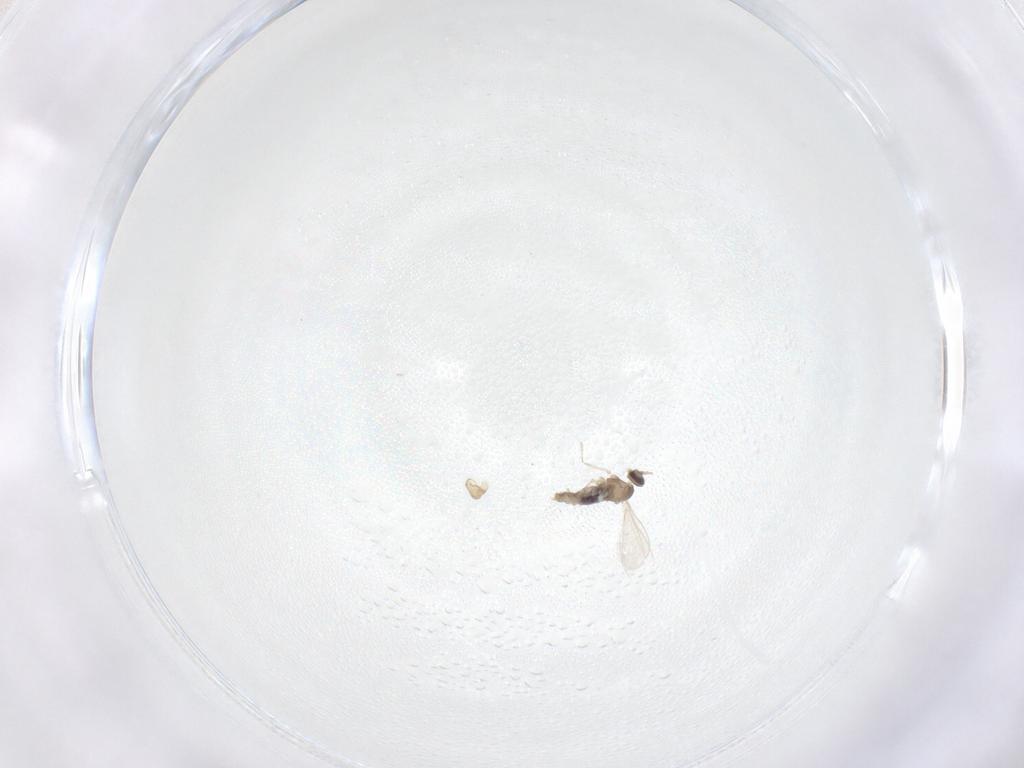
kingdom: Animalia
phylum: Arthropoda
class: Insecta
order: Diptera
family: Cecidomyiidae
